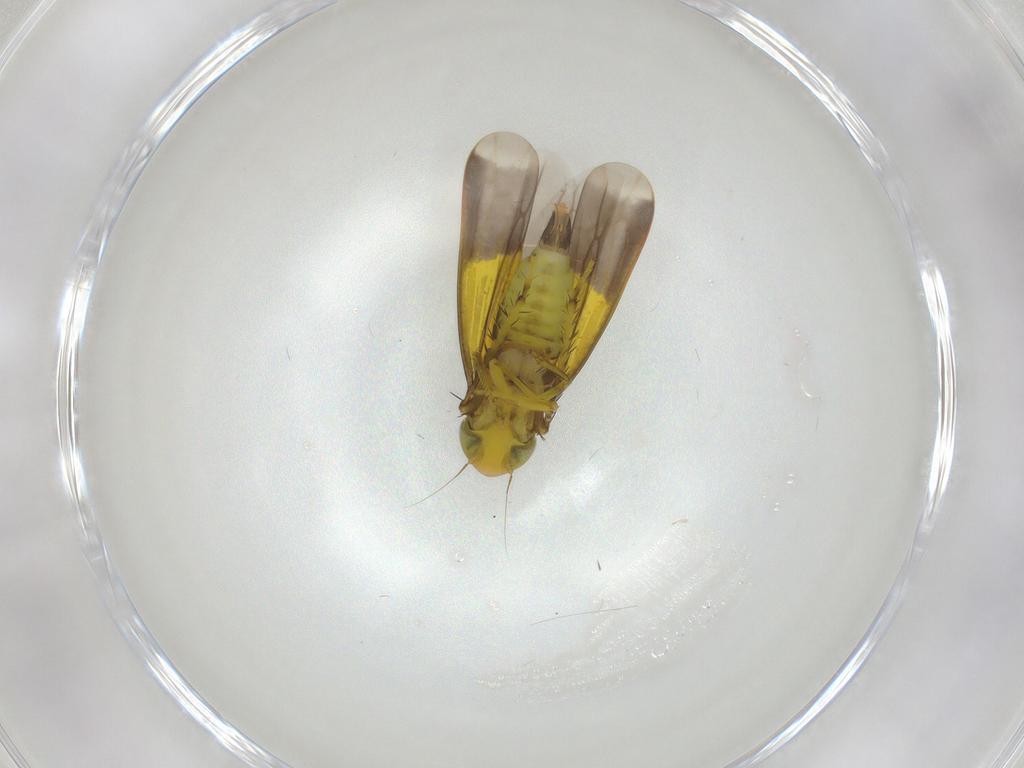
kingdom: Animalia
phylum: Arthropoda
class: Insecta
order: Hemiptera
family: Cicadellidae
